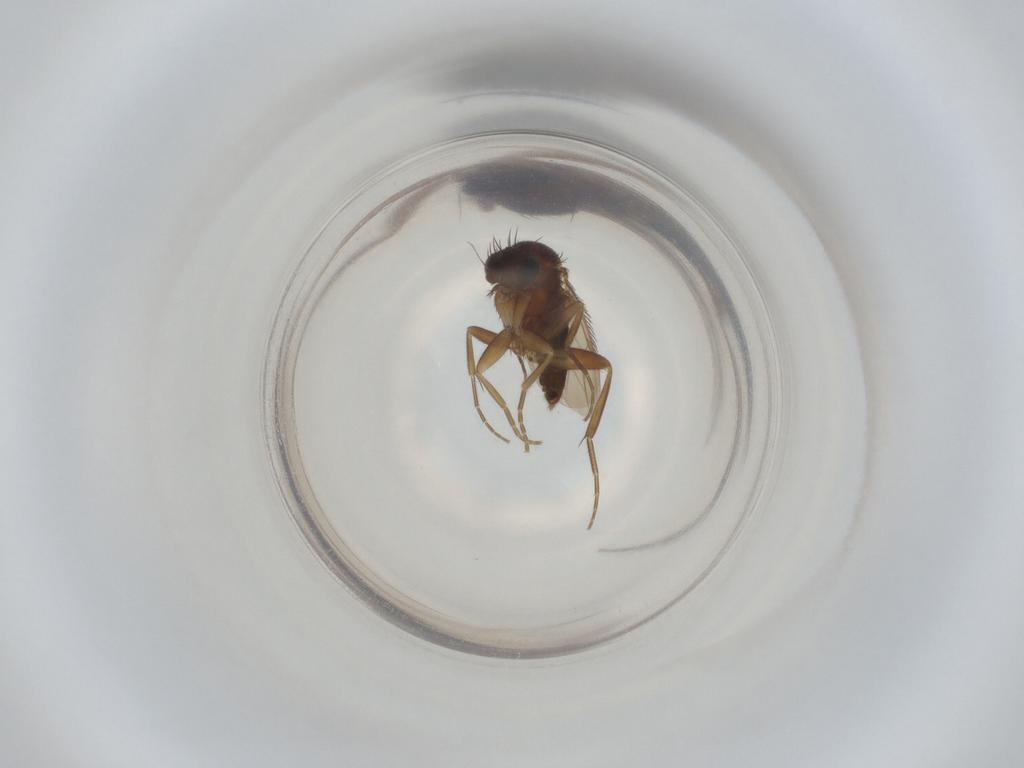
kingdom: Animalia
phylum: Arthropoda
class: Insecta
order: Diptera
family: Phoridae
